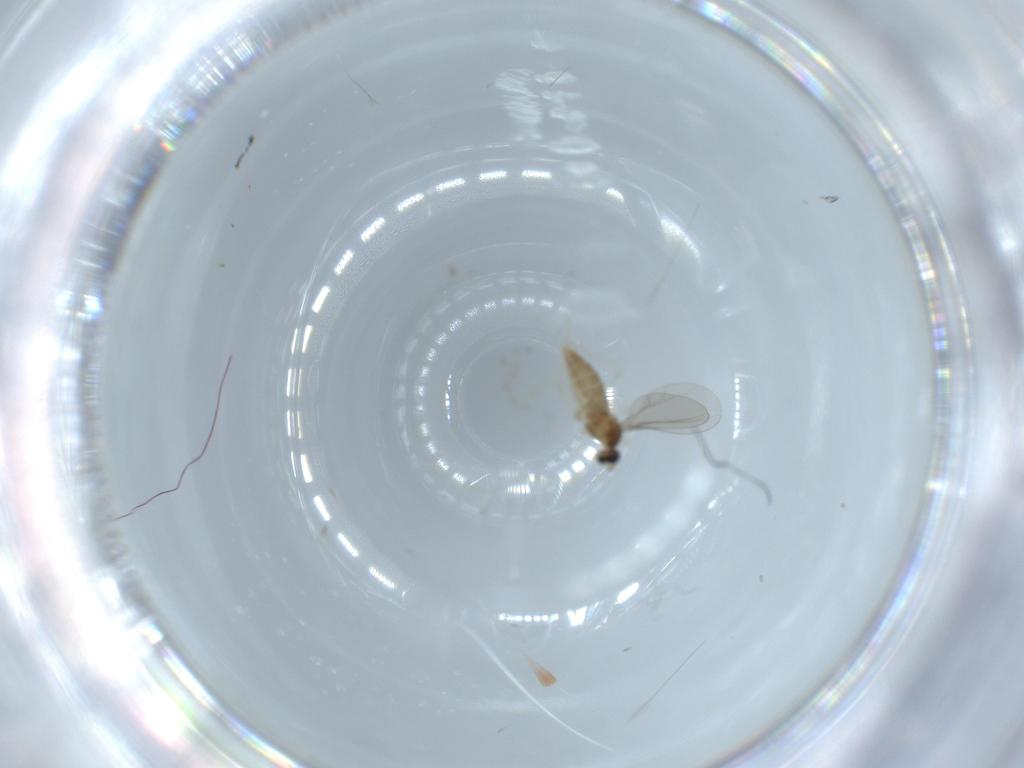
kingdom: Animalia
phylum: Arthropoda
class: Insecta
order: Diptera
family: Cecidomyiidae
